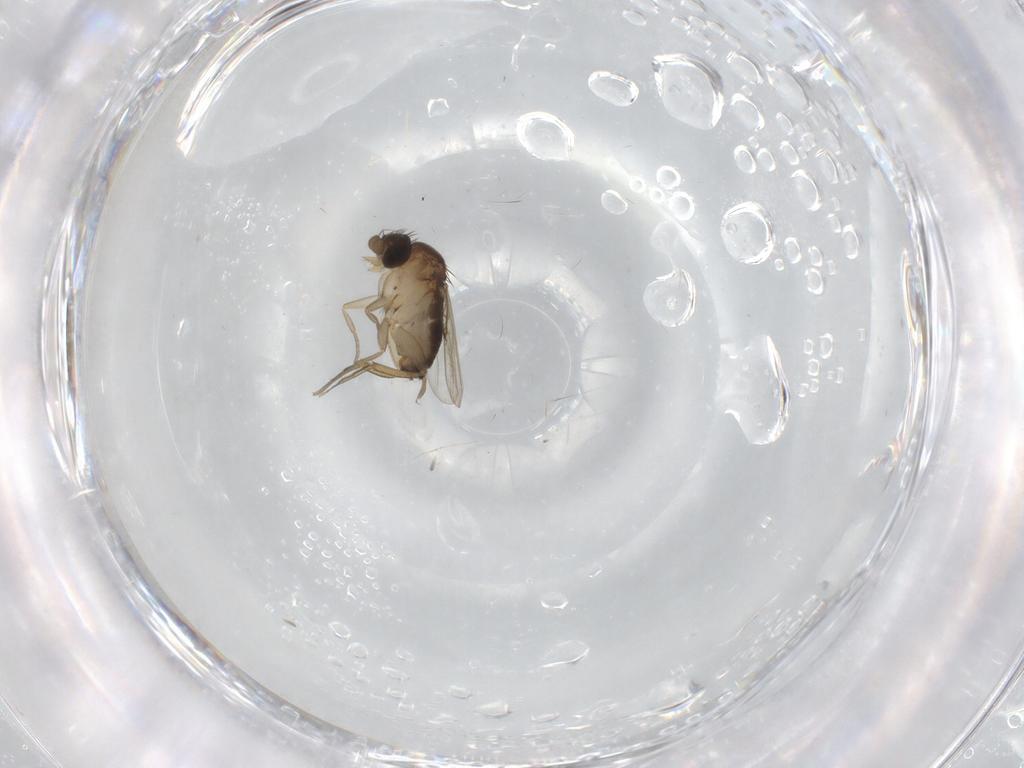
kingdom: Animalia
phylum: Arthropoda
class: Insecta
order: Diptera
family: Cecidomyiidae
